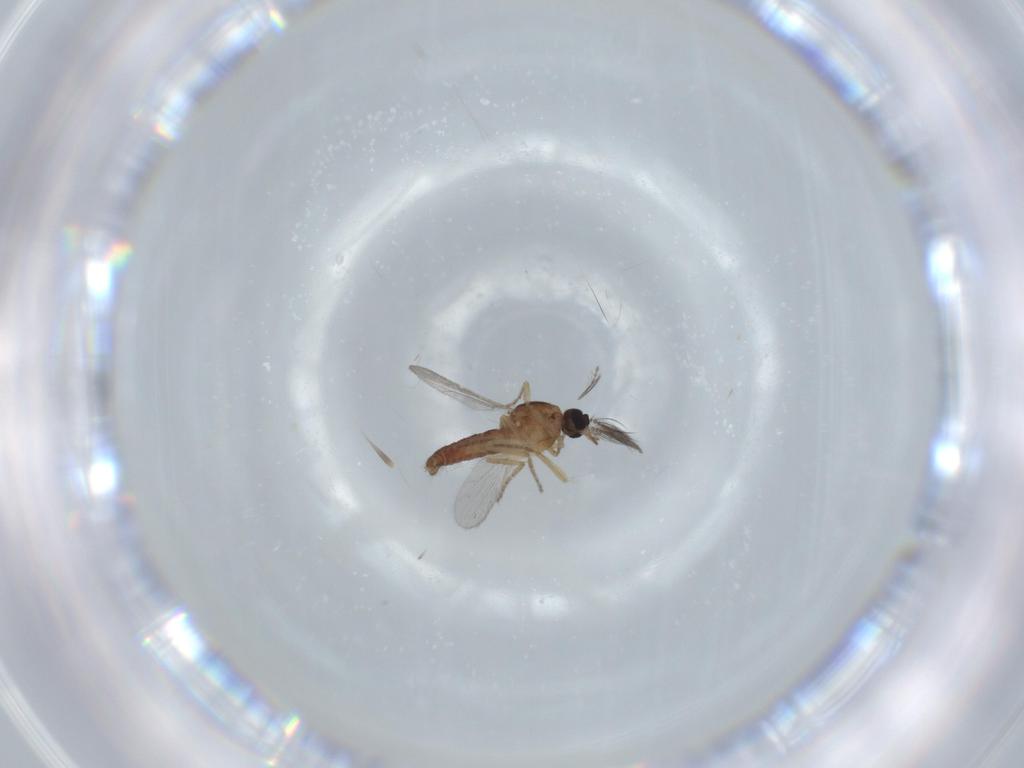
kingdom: Animalia
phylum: Arthropoda
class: Insecta
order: Diptera
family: Ceratopogonidae
